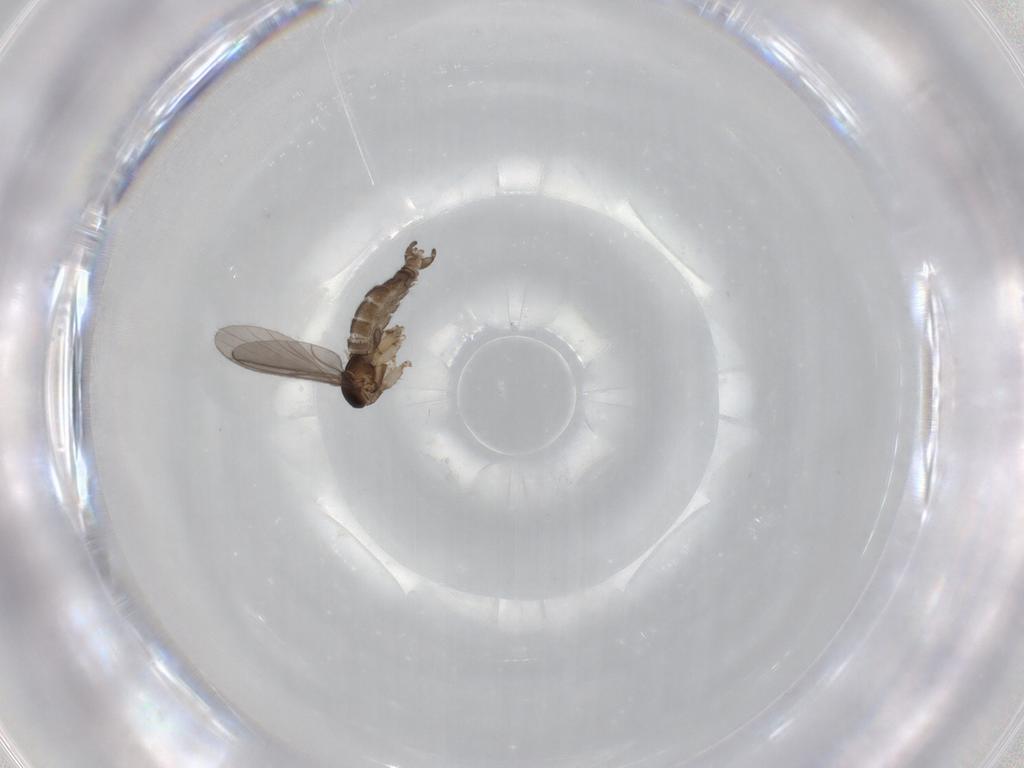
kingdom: Animalia
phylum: Arthropoda
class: Insecta
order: Diptera
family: Sciaridae
